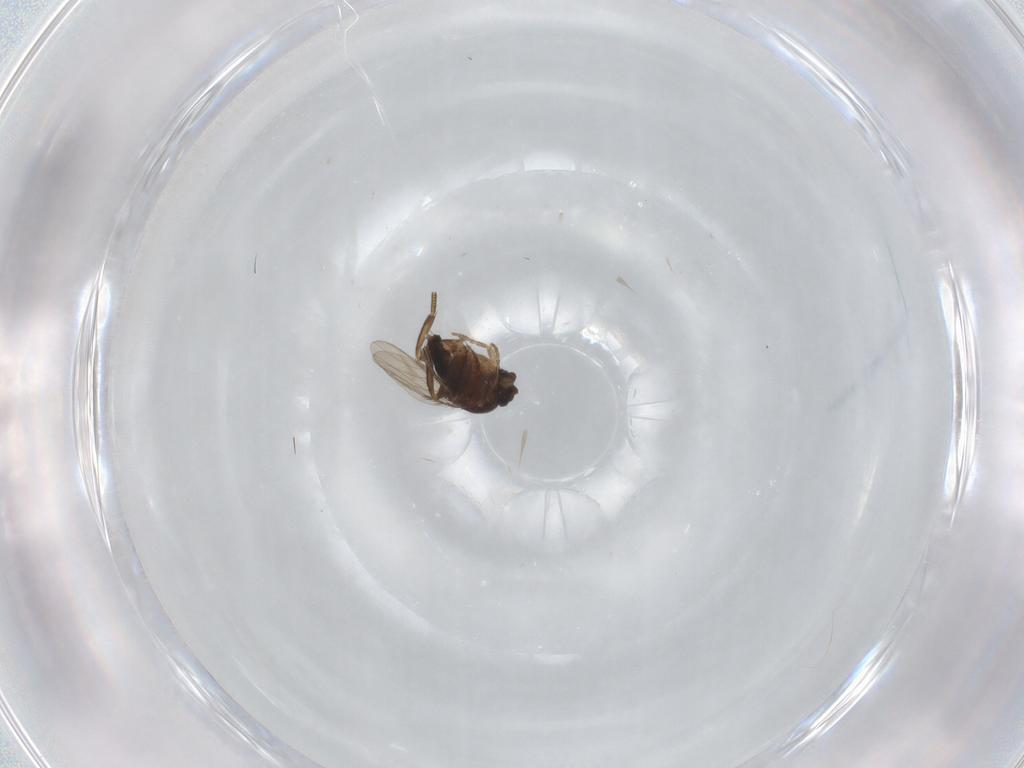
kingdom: Animalia
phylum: Arthropoda
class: Insecta
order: Diptera
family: Phoridae
